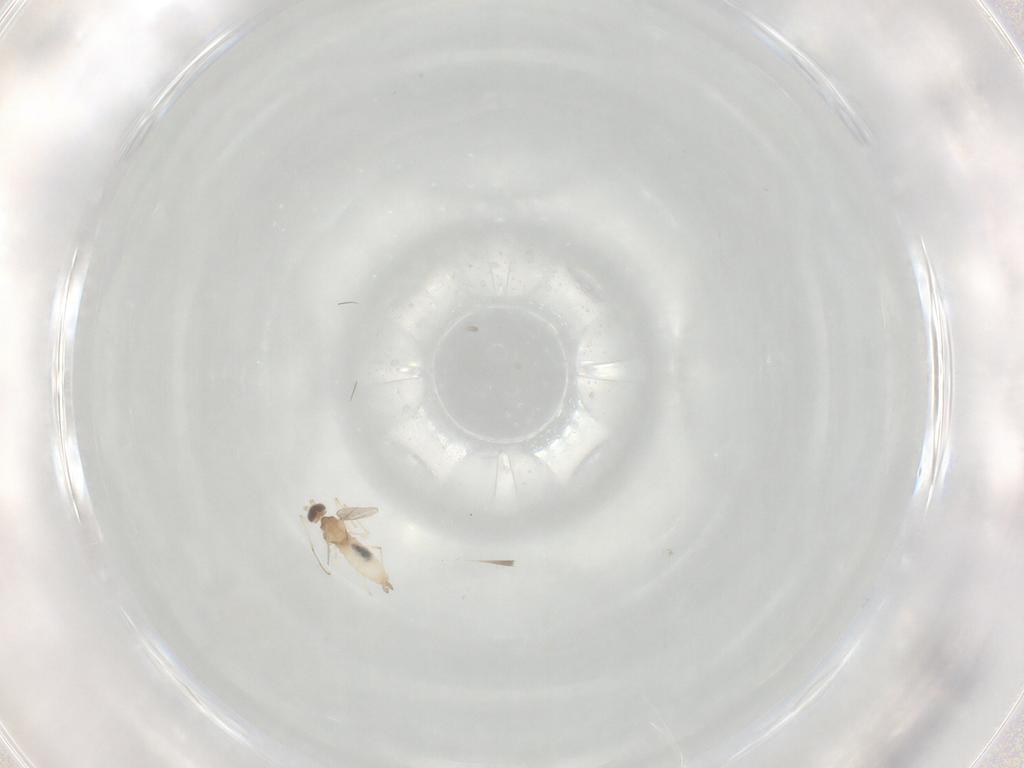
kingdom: Animalia
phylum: Arthropoda
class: Insecta
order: Diptera
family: Cecidomyiidae
